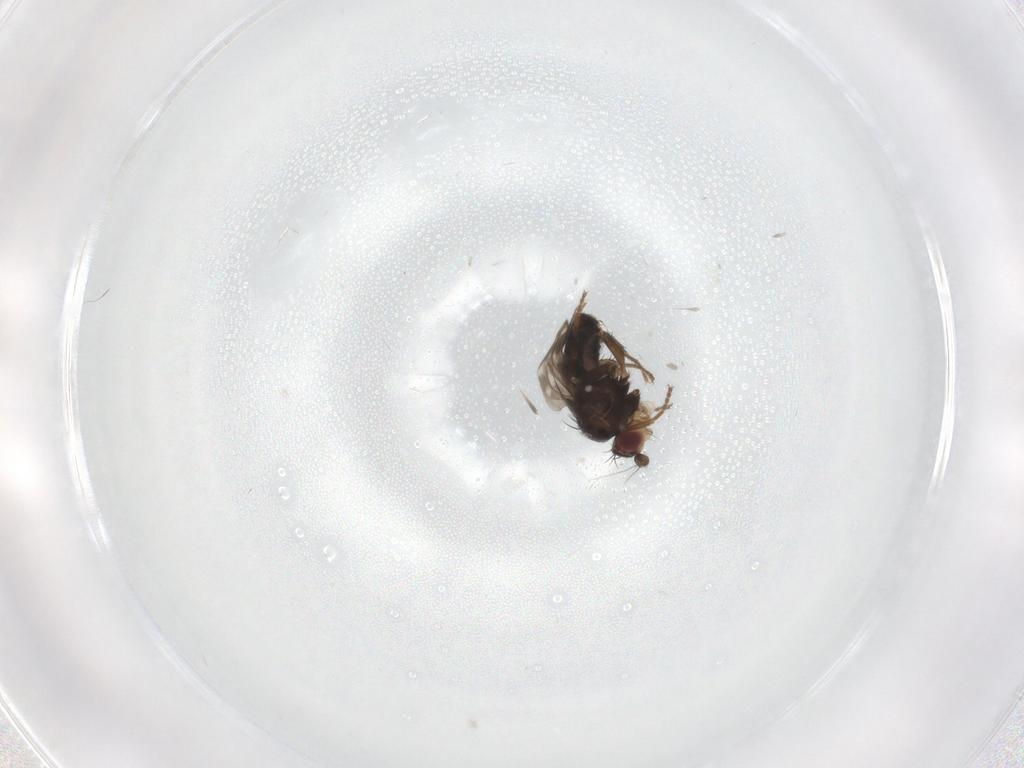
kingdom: Animalia
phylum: Arthropoda
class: Insecta
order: Diptera
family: Sphaeroceridae
